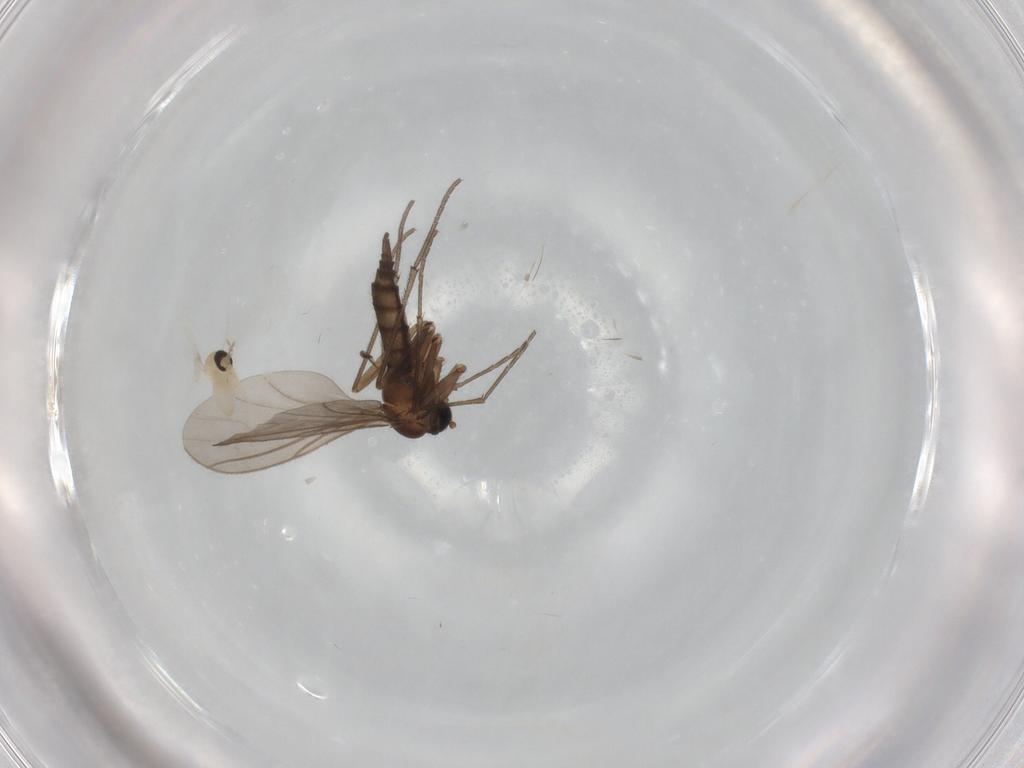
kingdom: Animalia
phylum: Arthropoda
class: Insecta
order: Diptera
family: Sciaridae
